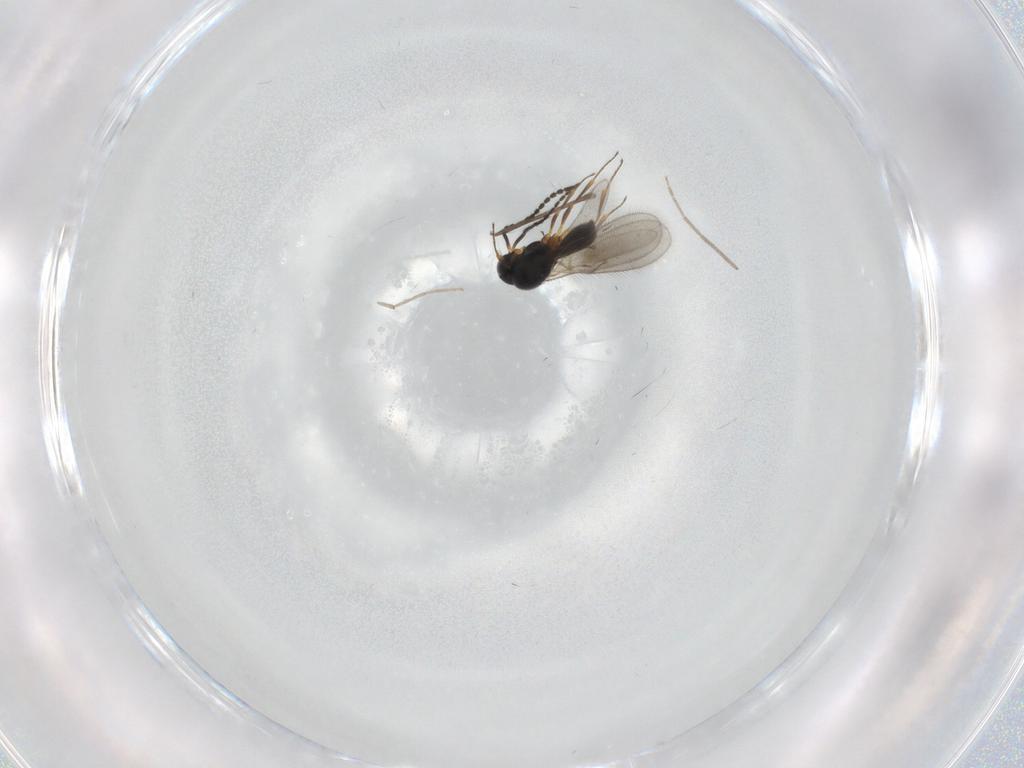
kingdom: Animalia
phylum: Arthropoda
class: Insecta
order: Hymenoptera
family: Scelionidae
